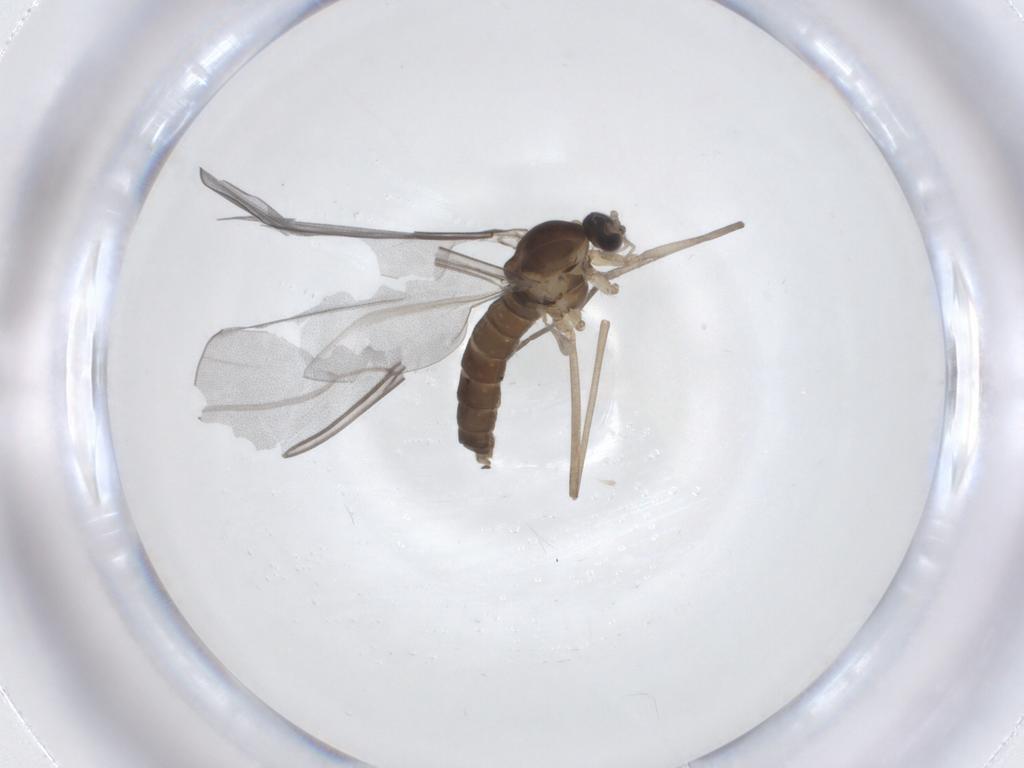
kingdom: Animalia
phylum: Arthropoda
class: Insecta
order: Diptera
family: Cecidomyiidae
